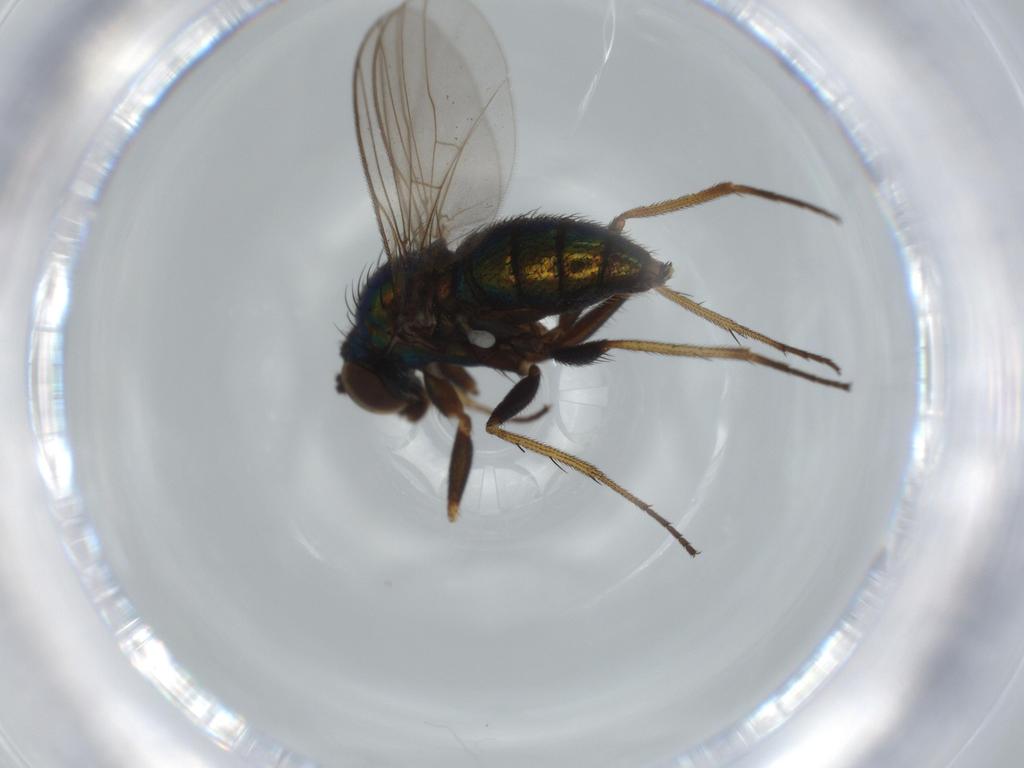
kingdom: Animalia
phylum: Arthropoda
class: Insecta
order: Diptera
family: Dolichopodidae
